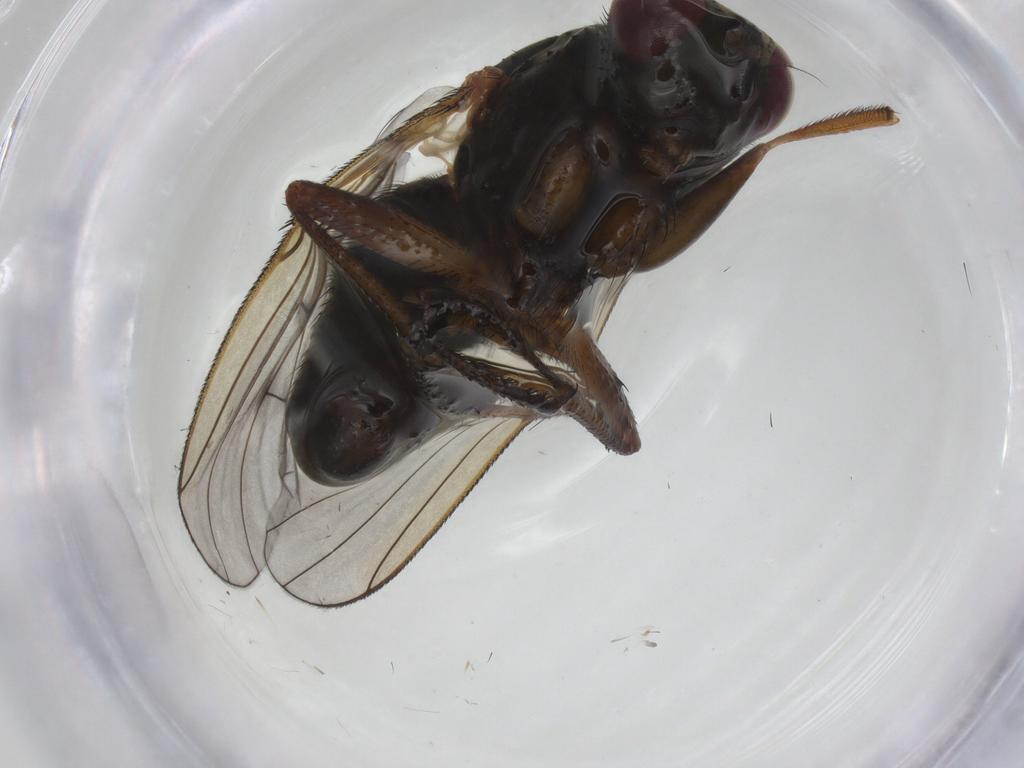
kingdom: Animalia
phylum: Arthropoda
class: Insecta
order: Diptera
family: Tachinidae
